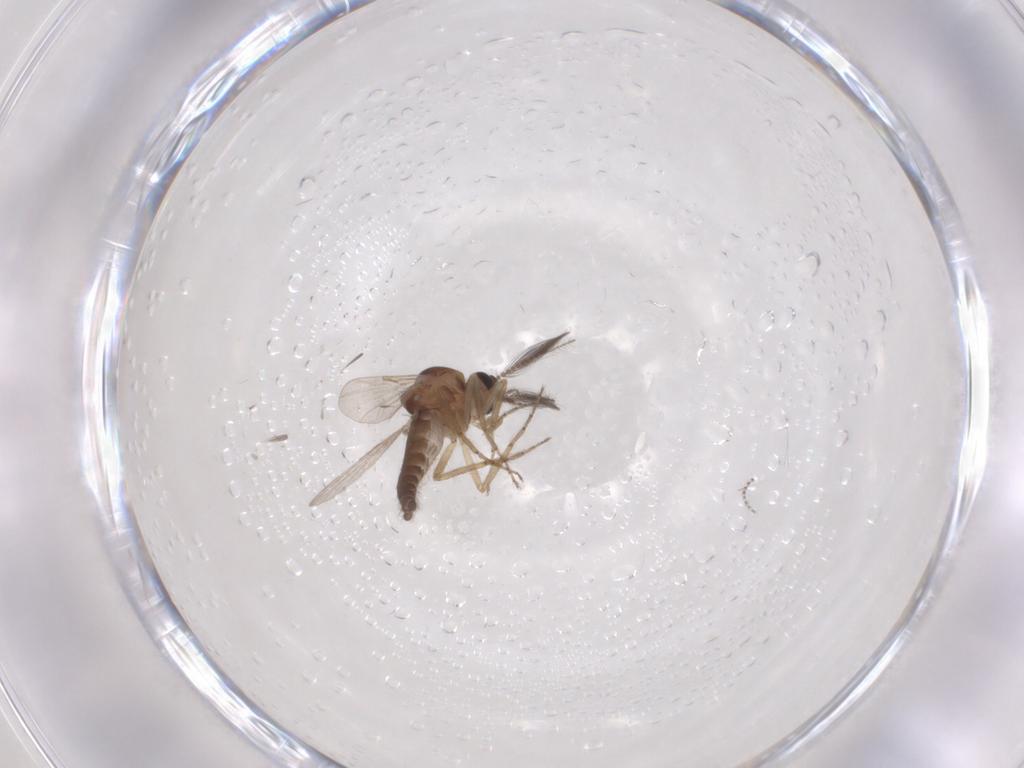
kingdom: Animalia
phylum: Arthropoda
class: Insecta
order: Diptera
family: Ceratopogonidae
